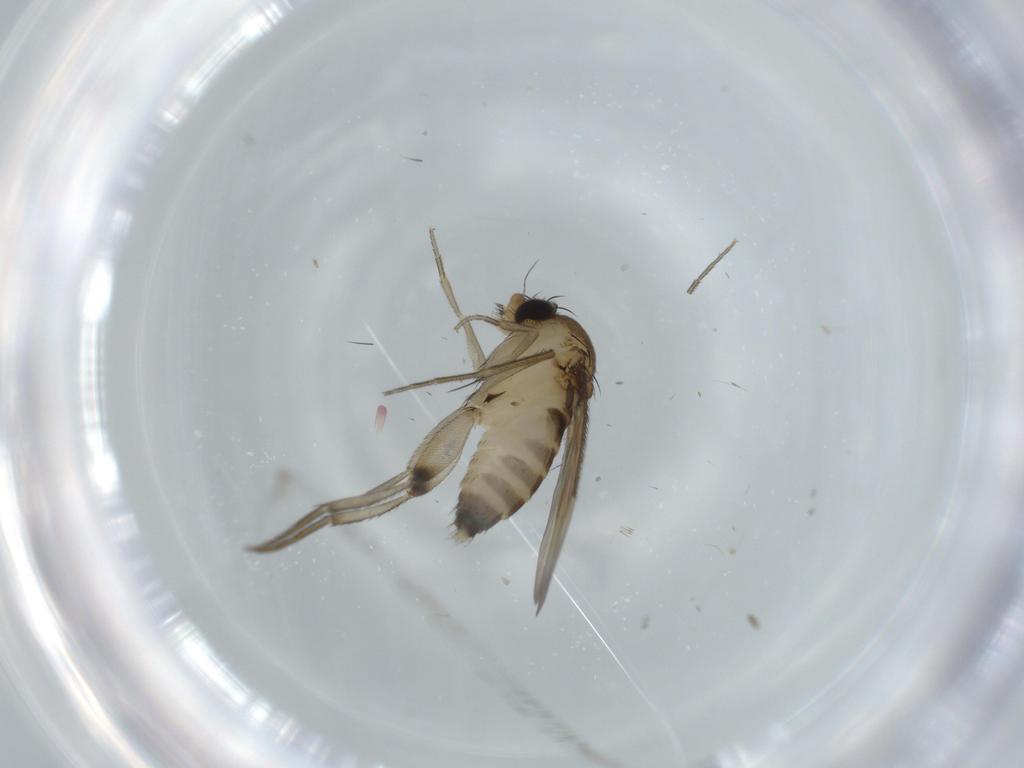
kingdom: Animalia
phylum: Arthropoda
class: Insecta
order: Diptera
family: Phoridae
